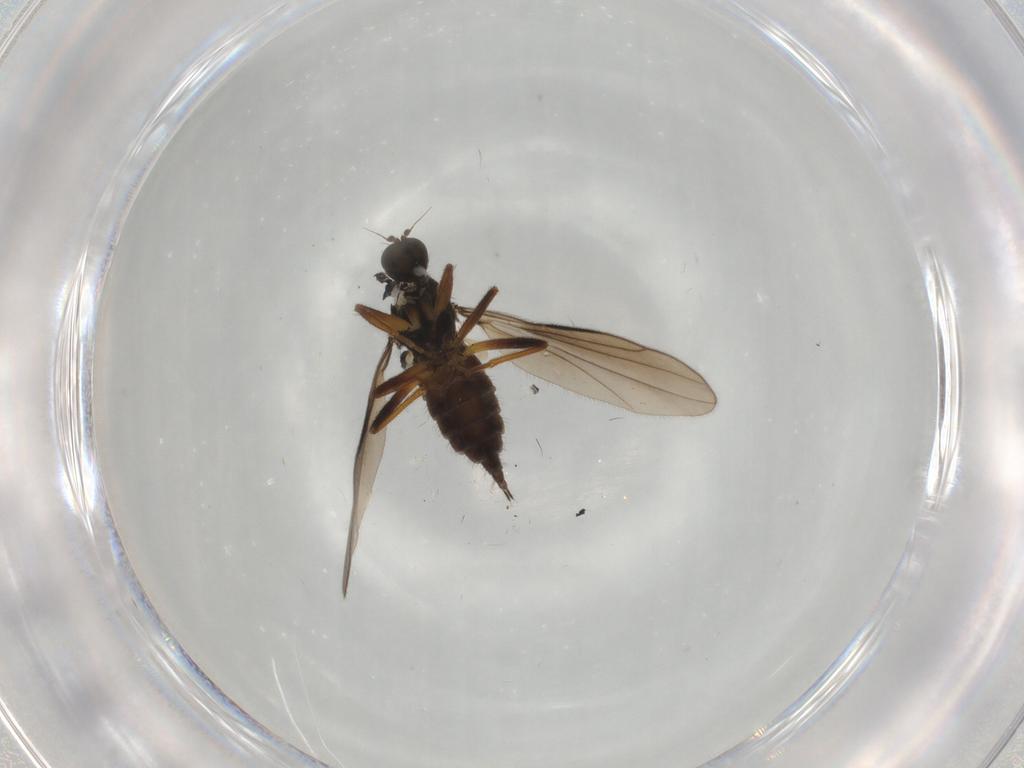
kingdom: Animalia
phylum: Arthropoda
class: Insecta
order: Diptera
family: Hybotidae
